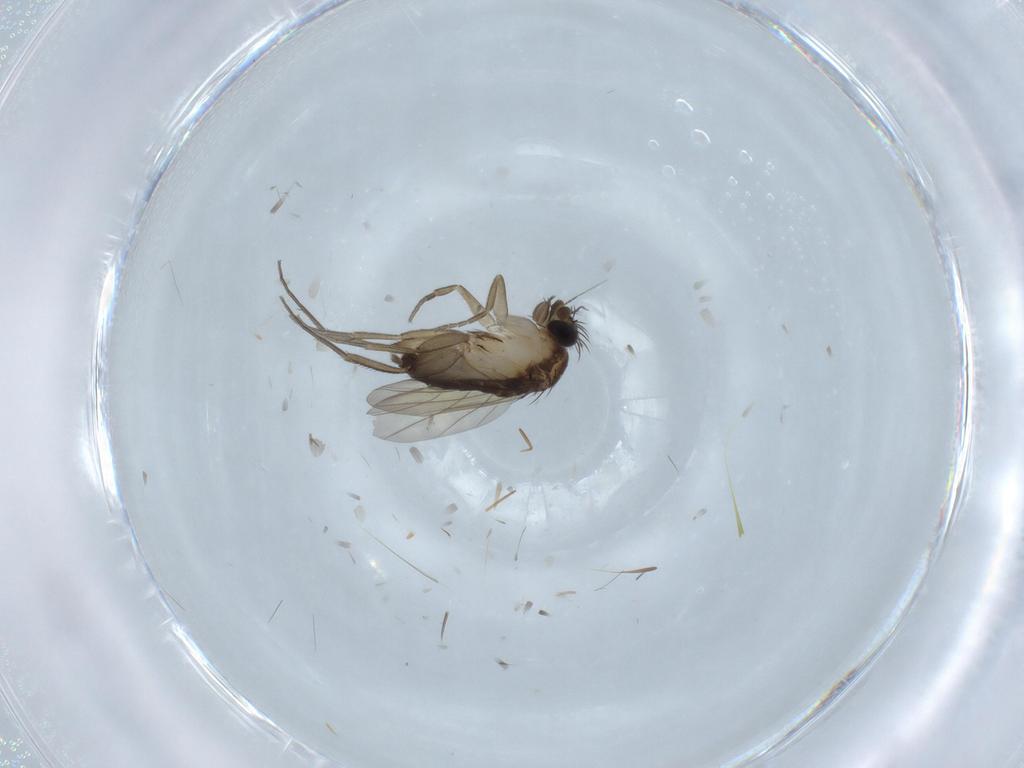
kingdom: Animalia
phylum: Arthropoda
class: Insecta
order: Diptera
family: Phoridae
